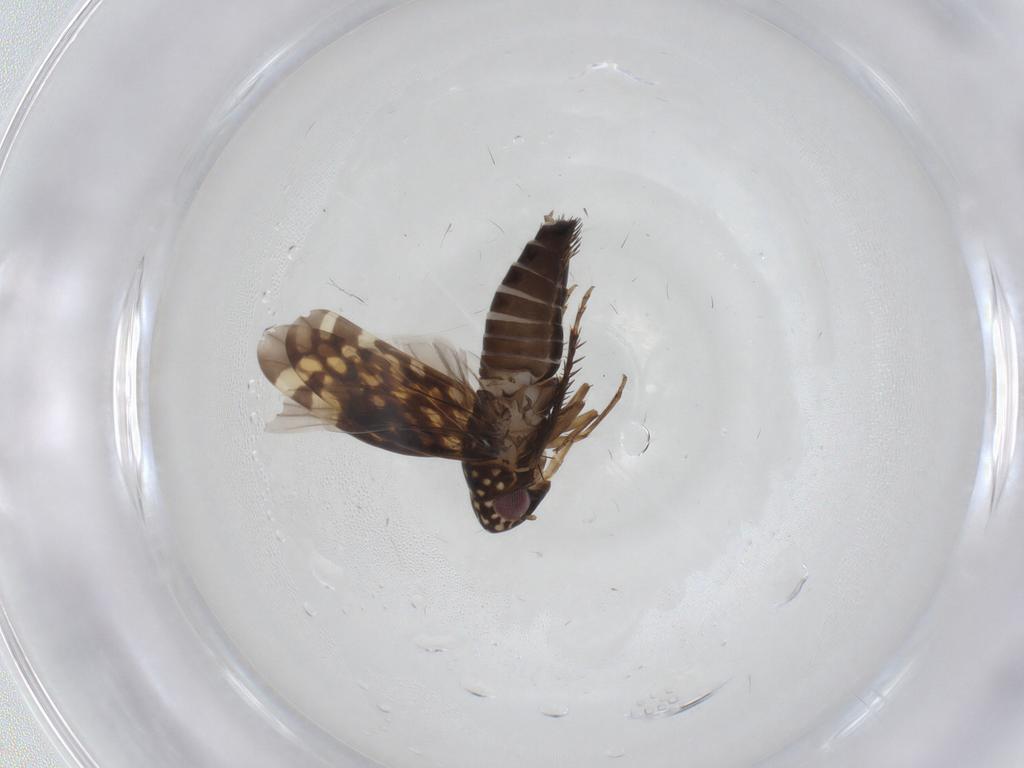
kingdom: Animalia
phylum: Arthropoda
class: Insecta
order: Hemiptera
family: Cicadellidae
